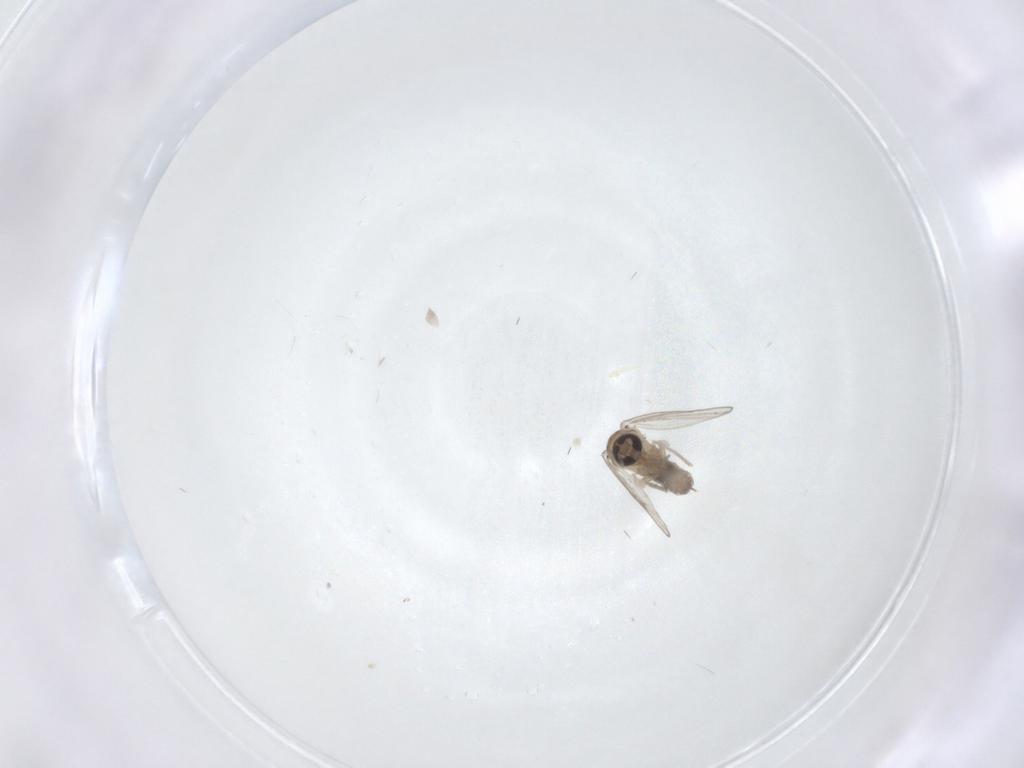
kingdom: Animalia
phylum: Arthropoda
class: Insecta
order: Diptera
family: Psychodidae
